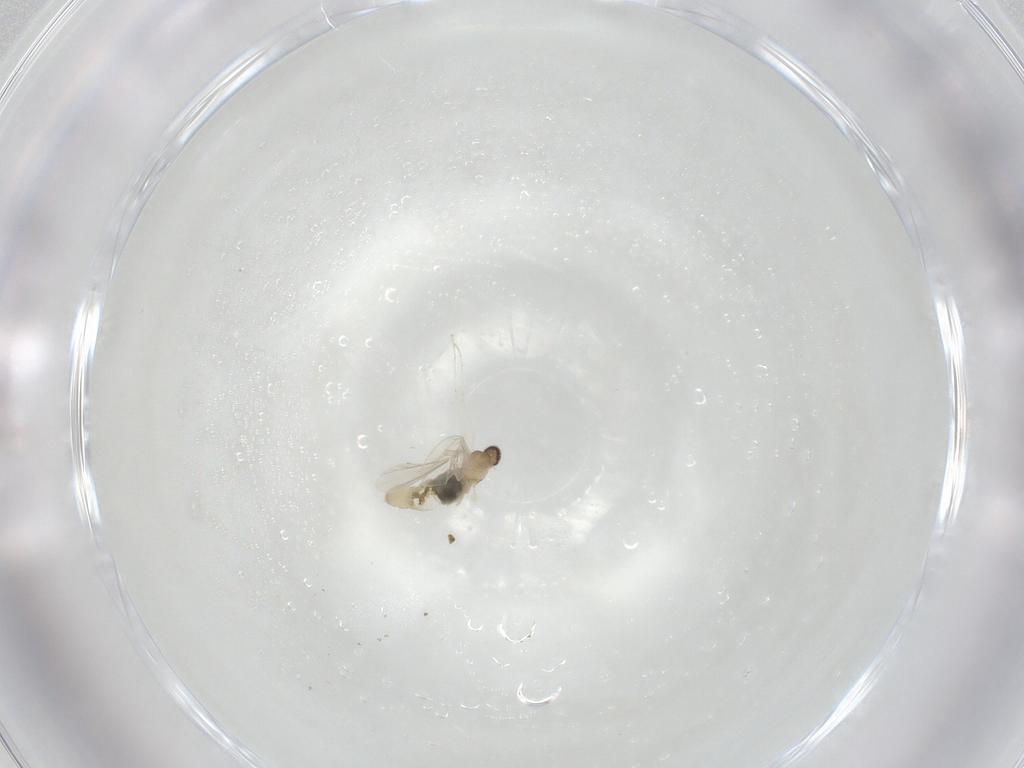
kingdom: Animalia
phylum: Arthropoda
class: Insecta
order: Diptera
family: Cecidomyiidae
